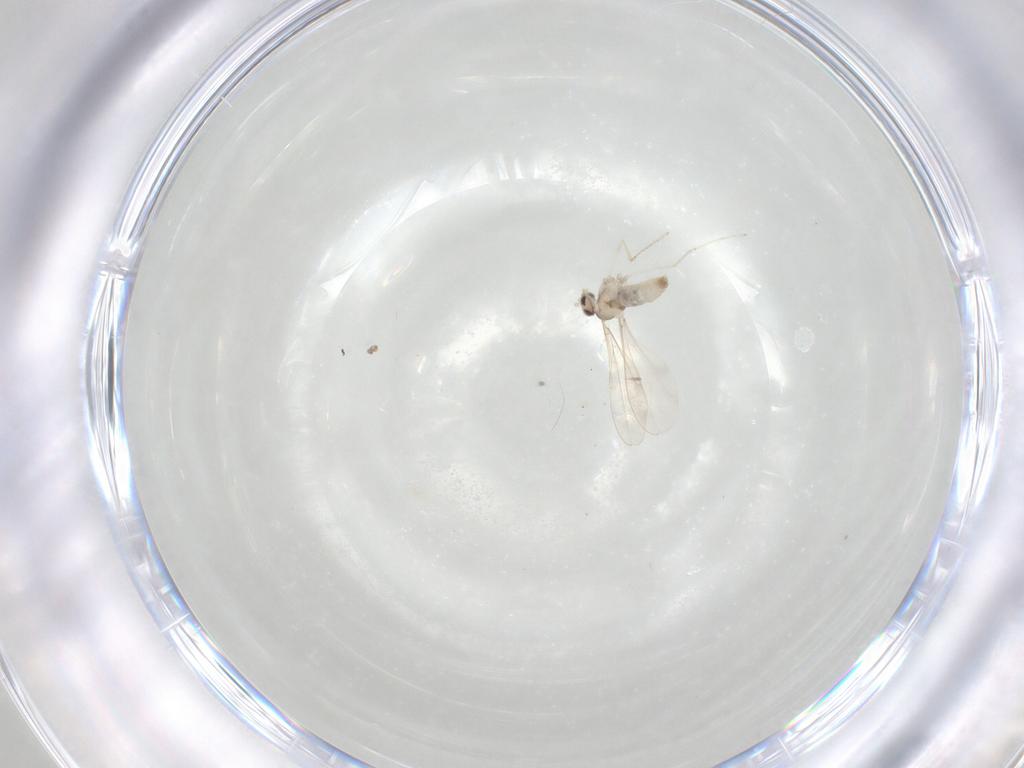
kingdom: Animalia
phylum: Arthropoda
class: Insecta
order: Diptera
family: Cecidomyiidae
